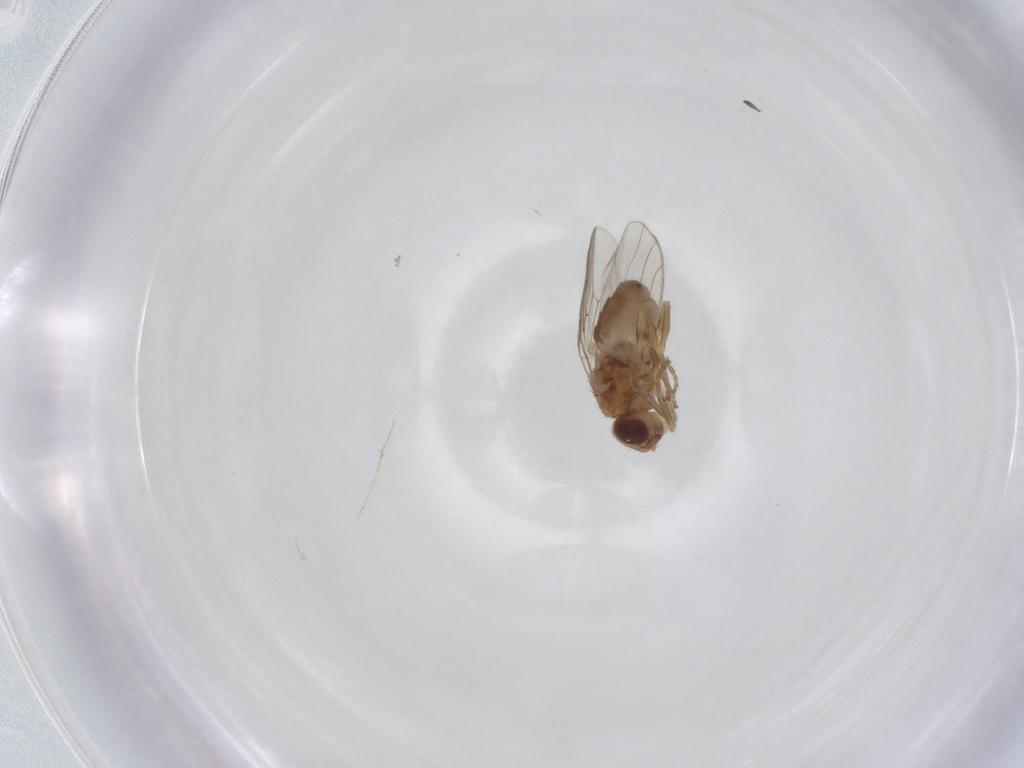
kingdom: Animalia
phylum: Arthropoda
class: Insecta
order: Diptera
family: Chloropidae
